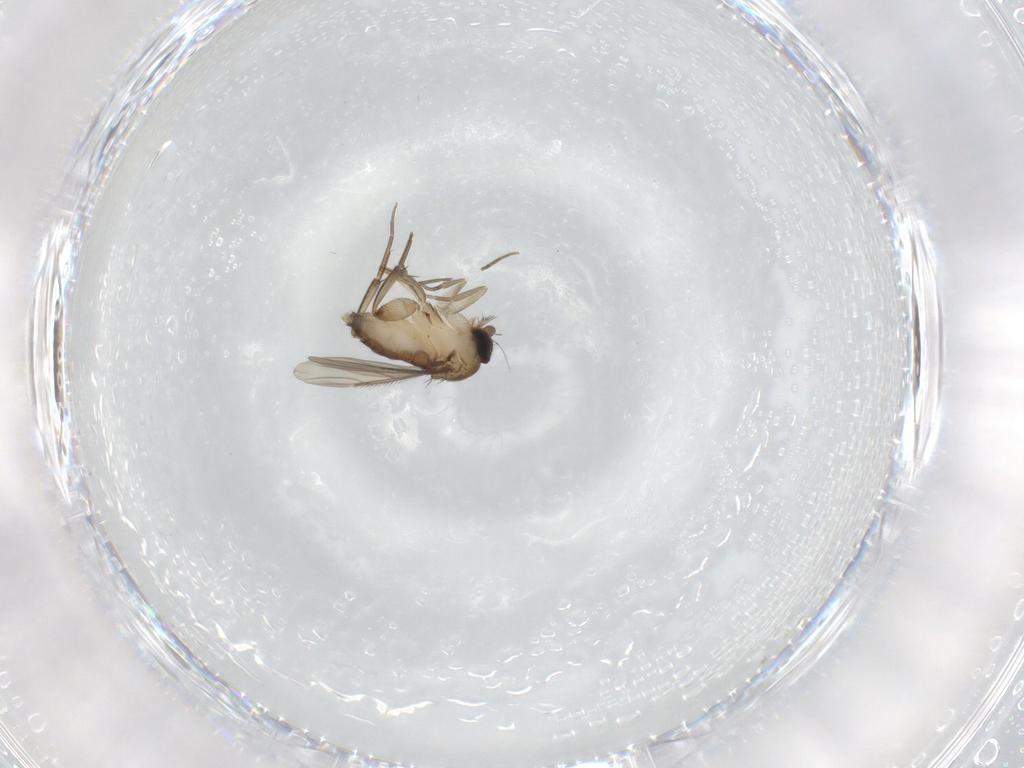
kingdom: Animalia
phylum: Arthropoda
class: Insecta
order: Diptera
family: Phoridae
